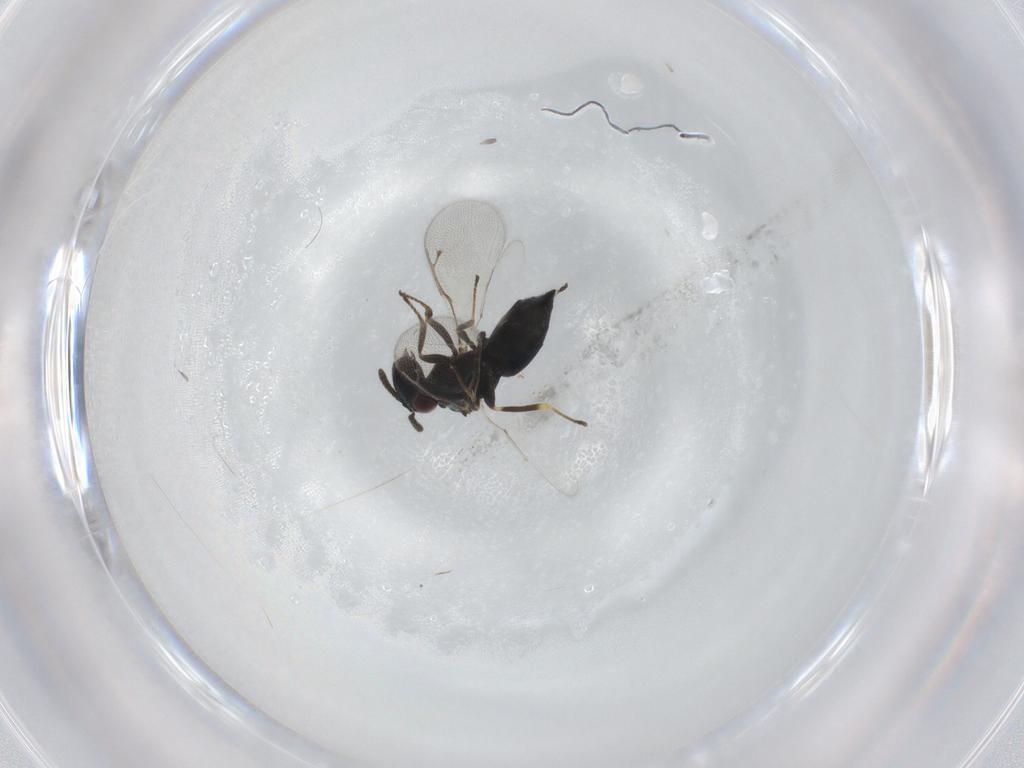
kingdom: Animalia
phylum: Arthropoda
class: Insecta
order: Hymenoptera
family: Pteromalidae
